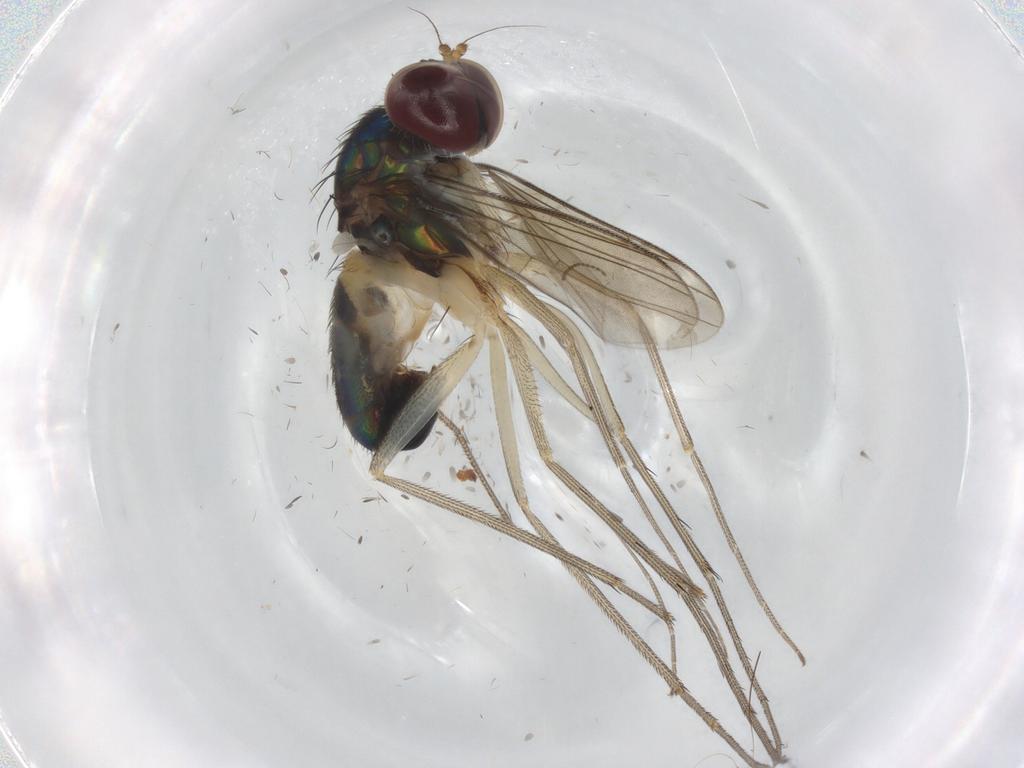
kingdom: Animalia
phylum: Arthropoda
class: Insecta
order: Diptera
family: Dolichopodidae
